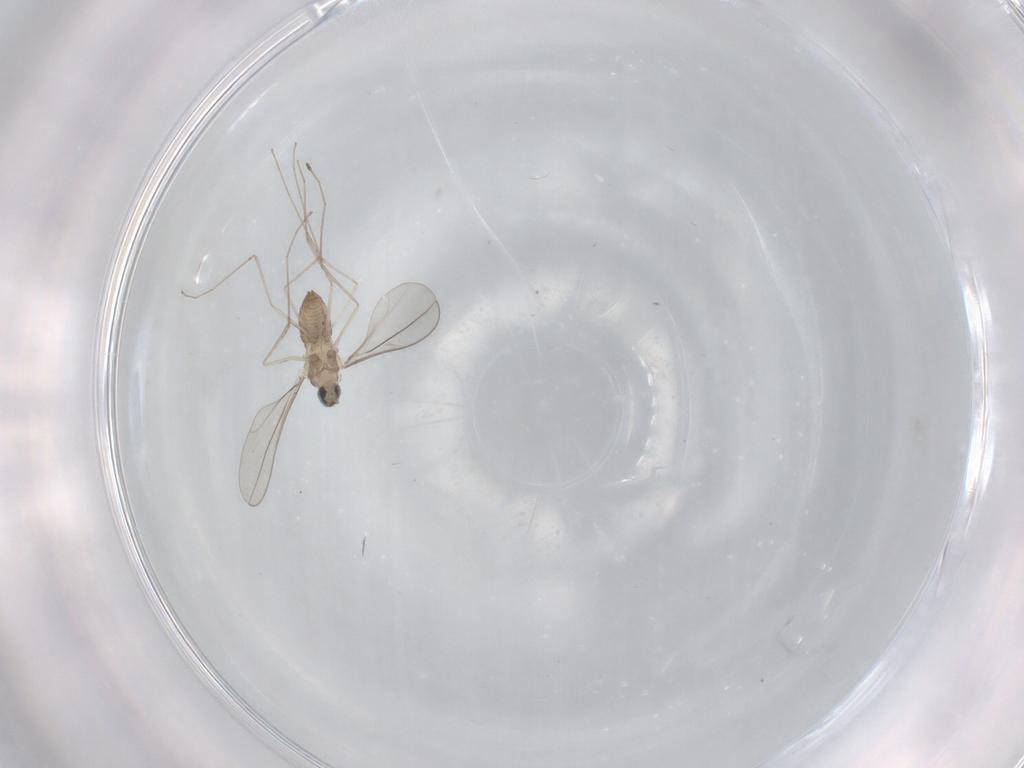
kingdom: Animalia
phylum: Arthropoda
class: Insecta
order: Diptera
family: Cecidomyiidae
